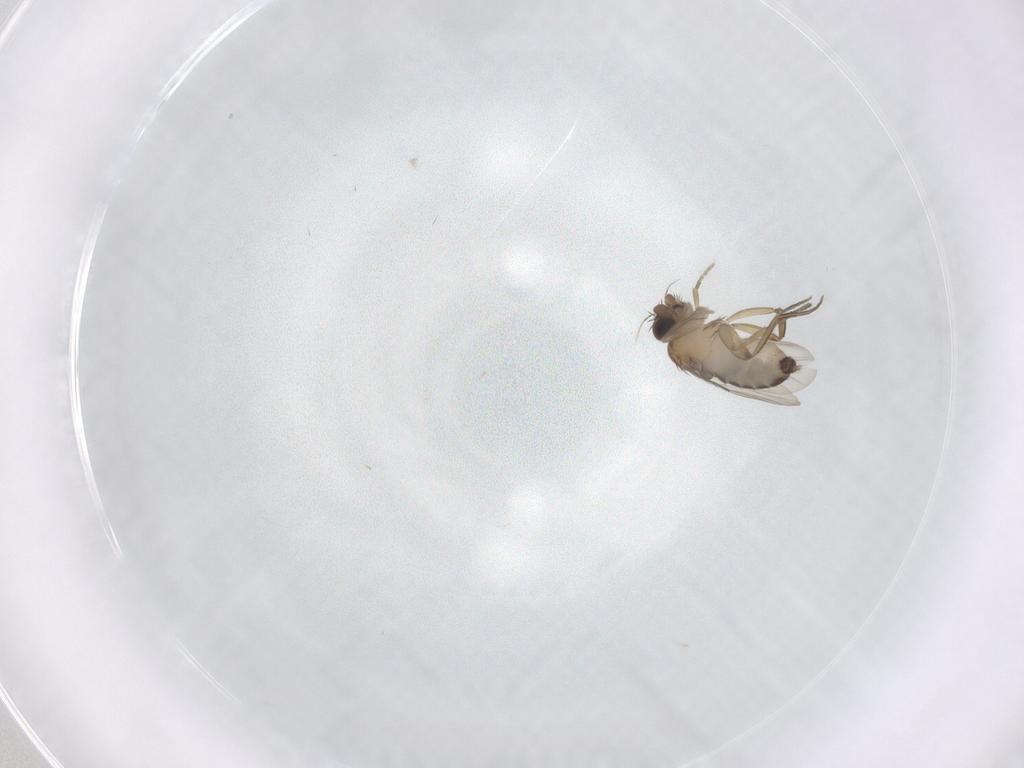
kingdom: Animalia
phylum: Arthropoda
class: Insecta
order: Diptera
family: Phoridae
